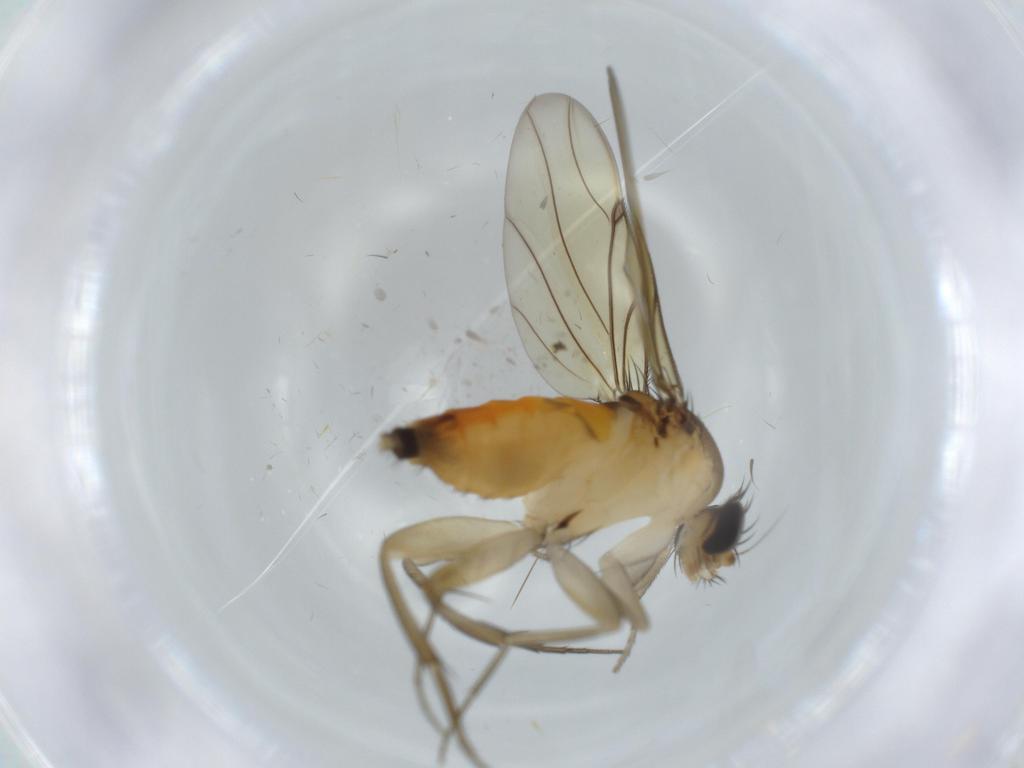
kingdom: Animalia
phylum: Arthropoda
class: Insecta
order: Diptera
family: Phoridae
